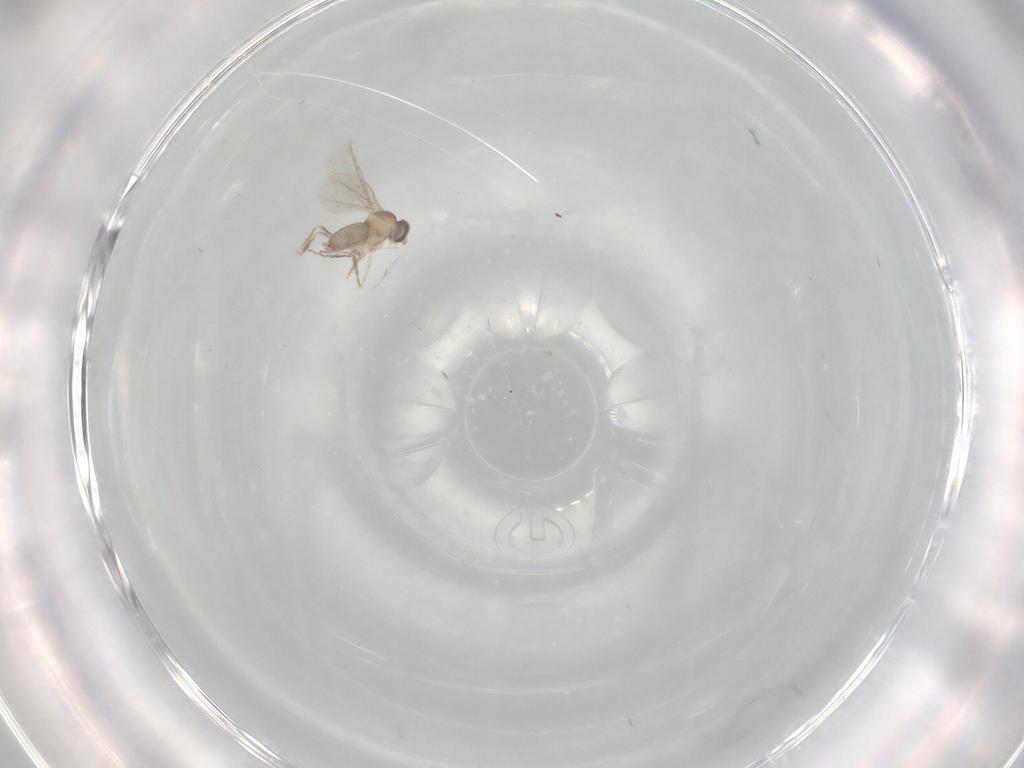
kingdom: Animalia
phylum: Arthropoda
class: Insecta
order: Diptera
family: Cecidomyiidae
